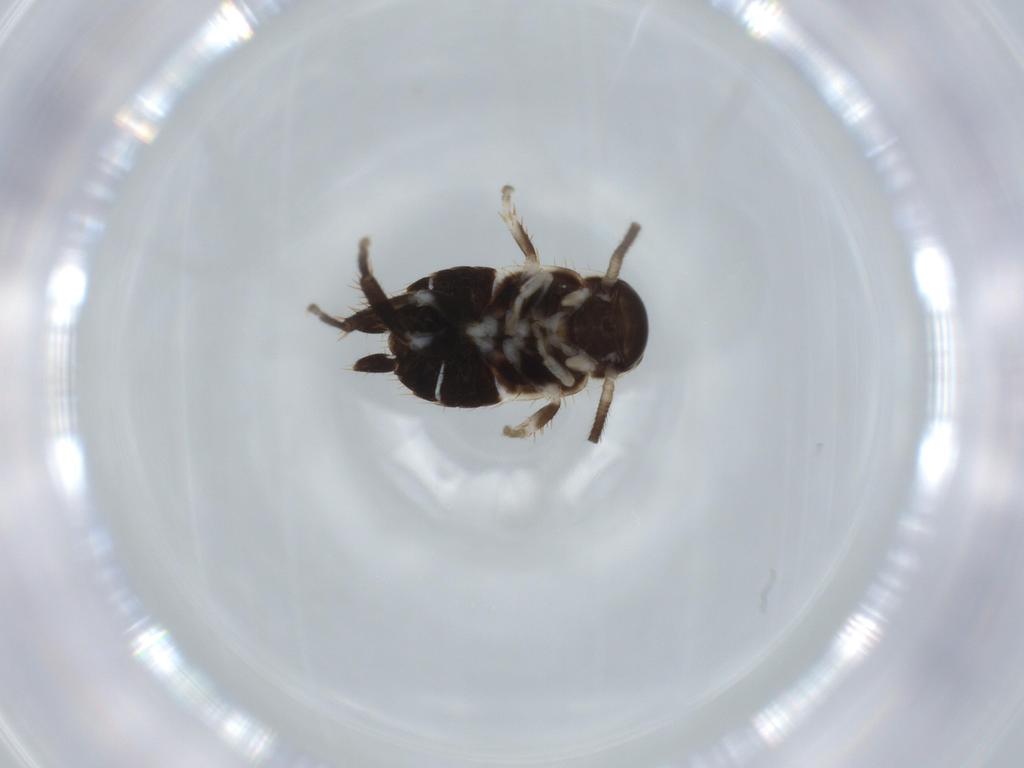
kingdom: Animalia
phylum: Arthropoda
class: Insecta
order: Blattodea
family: Ectobiidae
